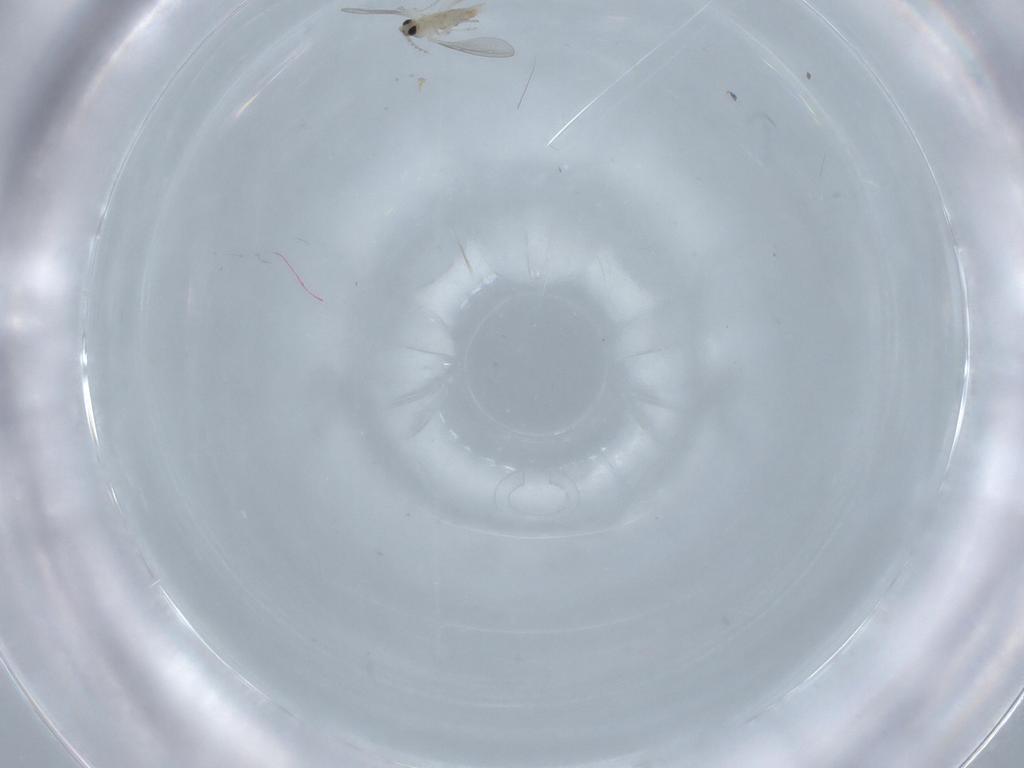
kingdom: Animalia
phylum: Arthropoda
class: Insecta
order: Diptera
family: Cecidomyiidae
